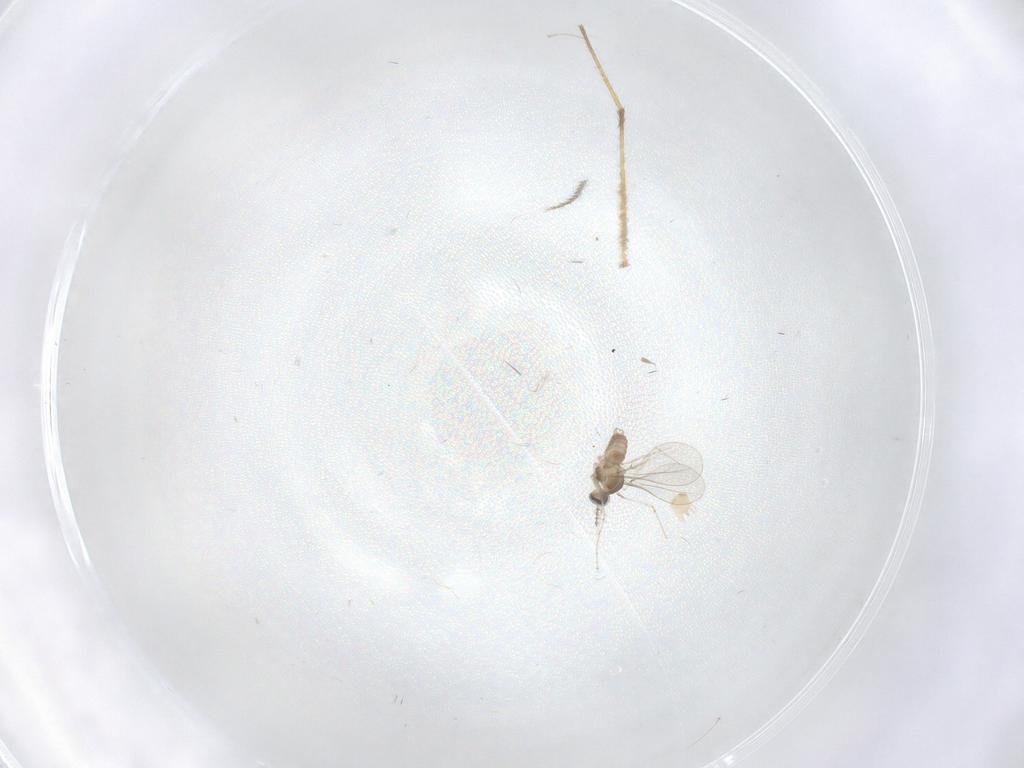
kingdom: Animalia
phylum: Arthropoda
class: Insecta
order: Diptera
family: Cecidomyiidae
